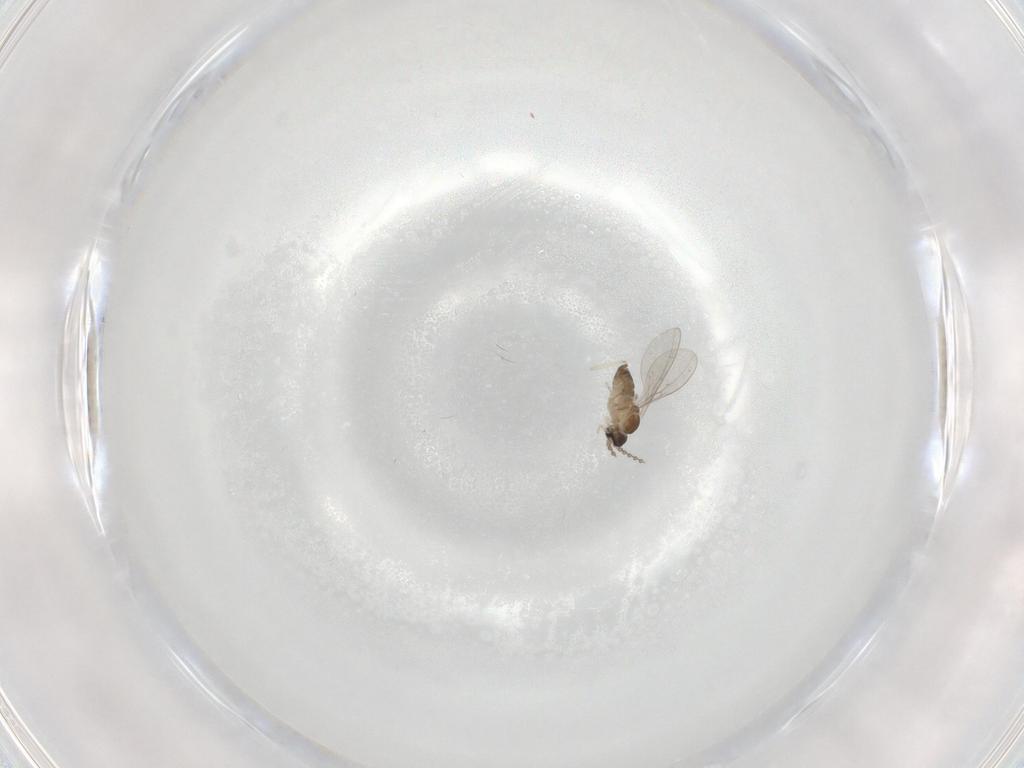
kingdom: Animalia
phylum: Arthropoda
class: Insecta
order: Diptera
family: Cecidomyiidae
